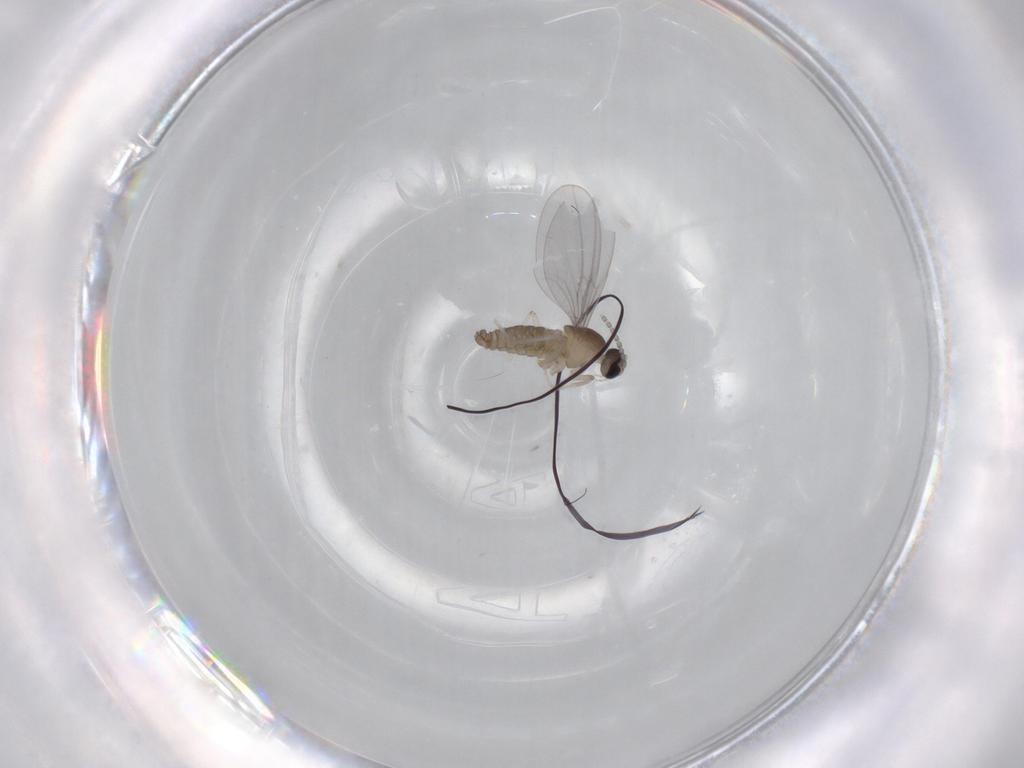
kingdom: Animalia
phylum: Arthropoda
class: Insecta
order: Diptera
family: Cecidomyiidae
